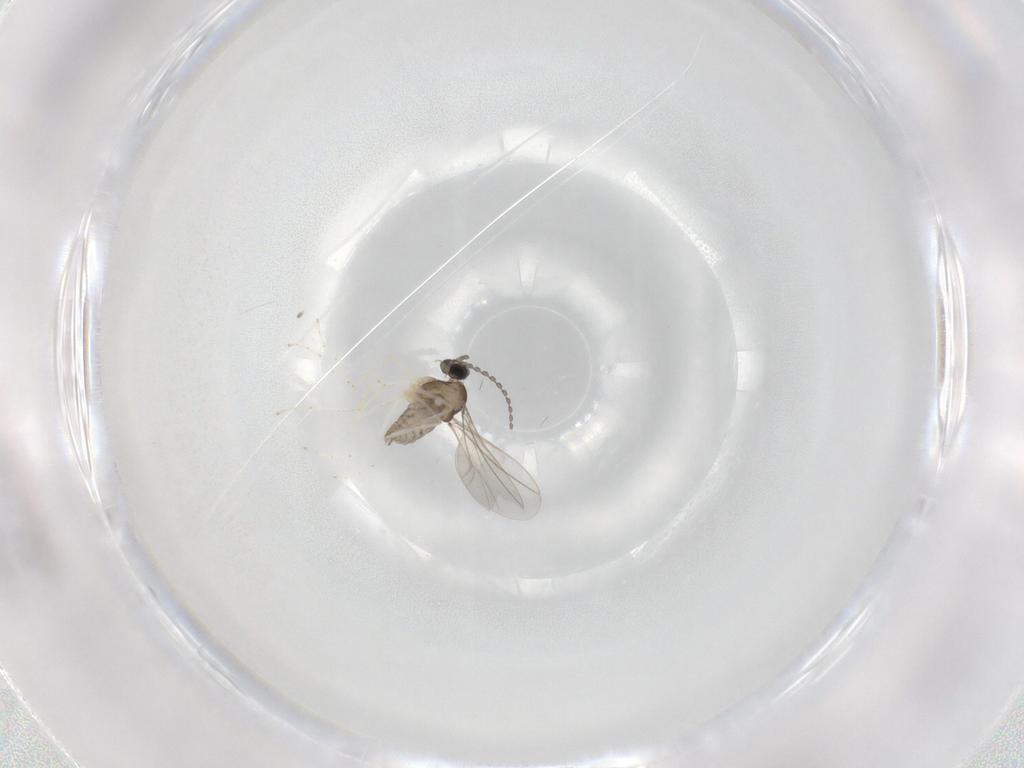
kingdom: Animalia
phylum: Arthropoda
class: Insecta
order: Diptera
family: Cecidomyiidae
